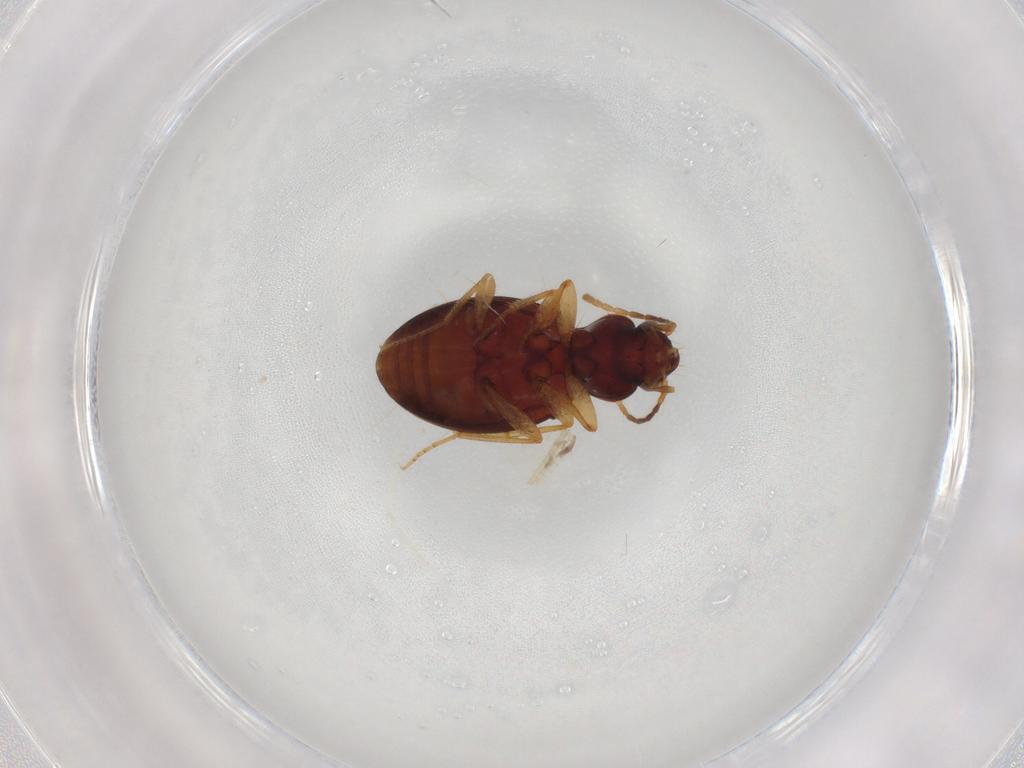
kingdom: Animalia
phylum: Arthropoda
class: Insecta
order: Coleoptera
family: Carabidae
